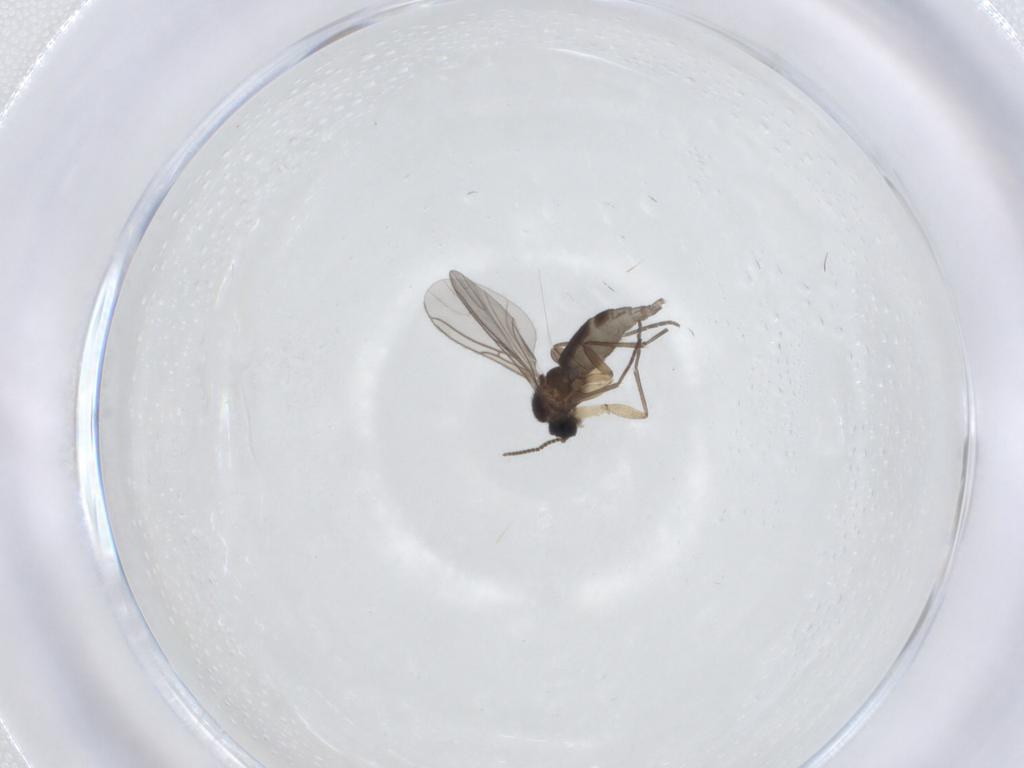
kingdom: Animalia
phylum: Arthropoda
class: Insecta
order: Diptera
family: Sciaridae
